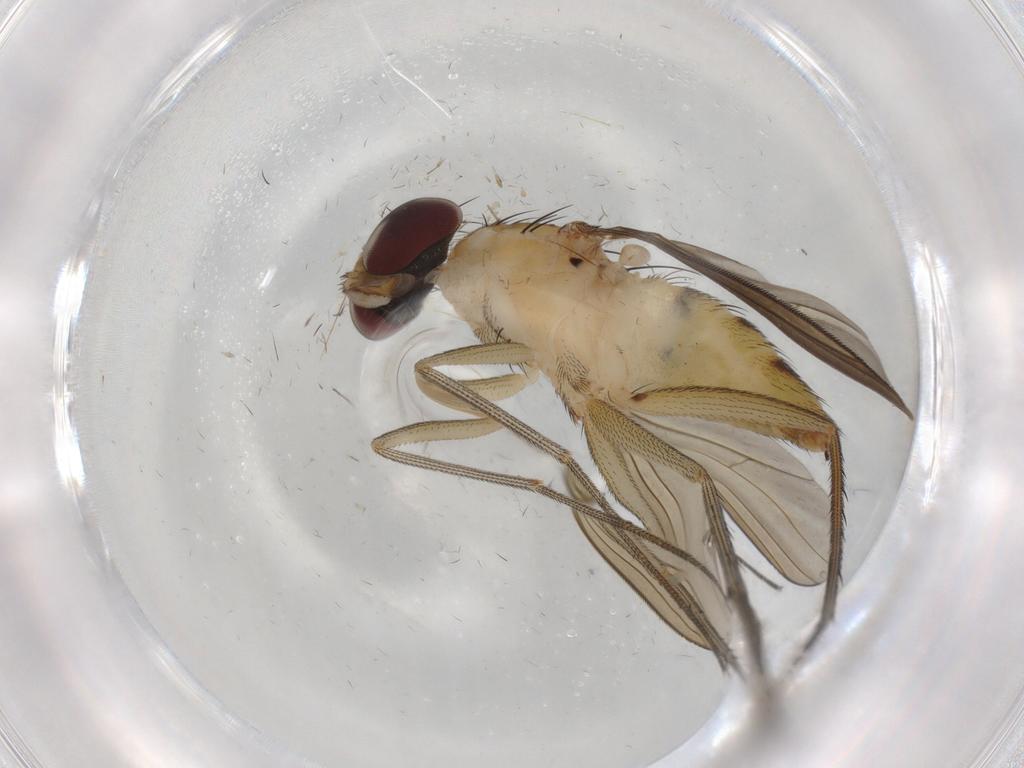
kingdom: Animalia
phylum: Arthropoda
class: Insecta
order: Diptera
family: Dolichopodidae
